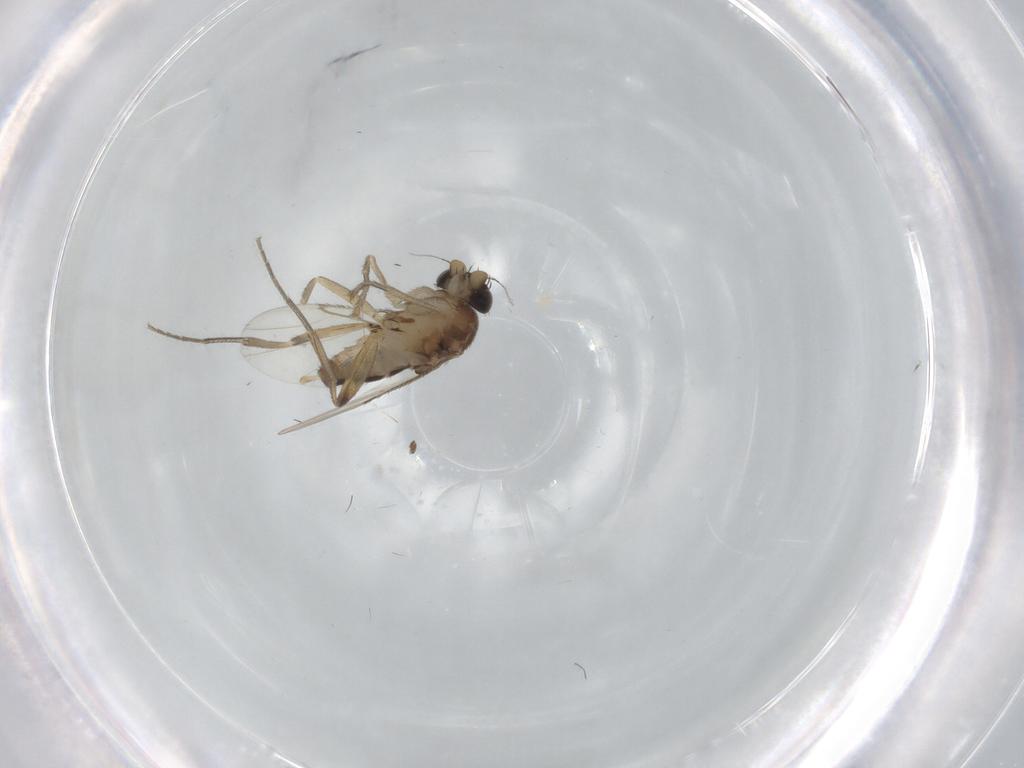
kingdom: Animalia
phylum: Arthropoda
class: Insecta
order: Diptera
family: Phoridae
